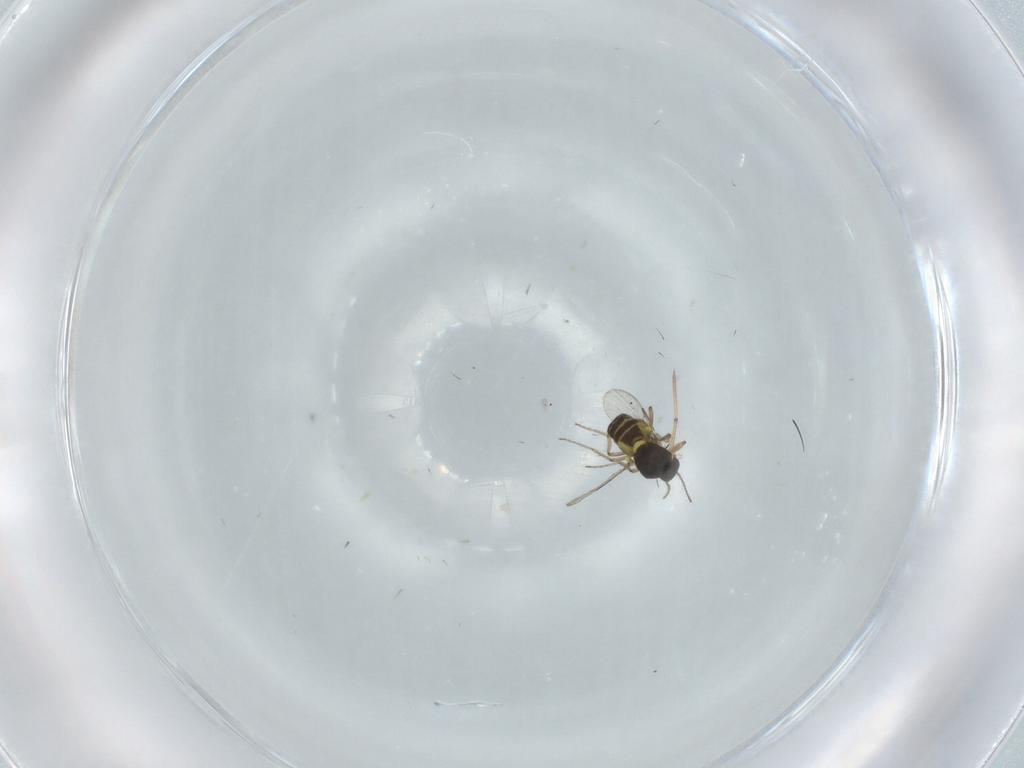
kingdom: Animalia
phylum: Arthropoda
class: Insecta
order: Diptera
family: Ceratopogonidae
